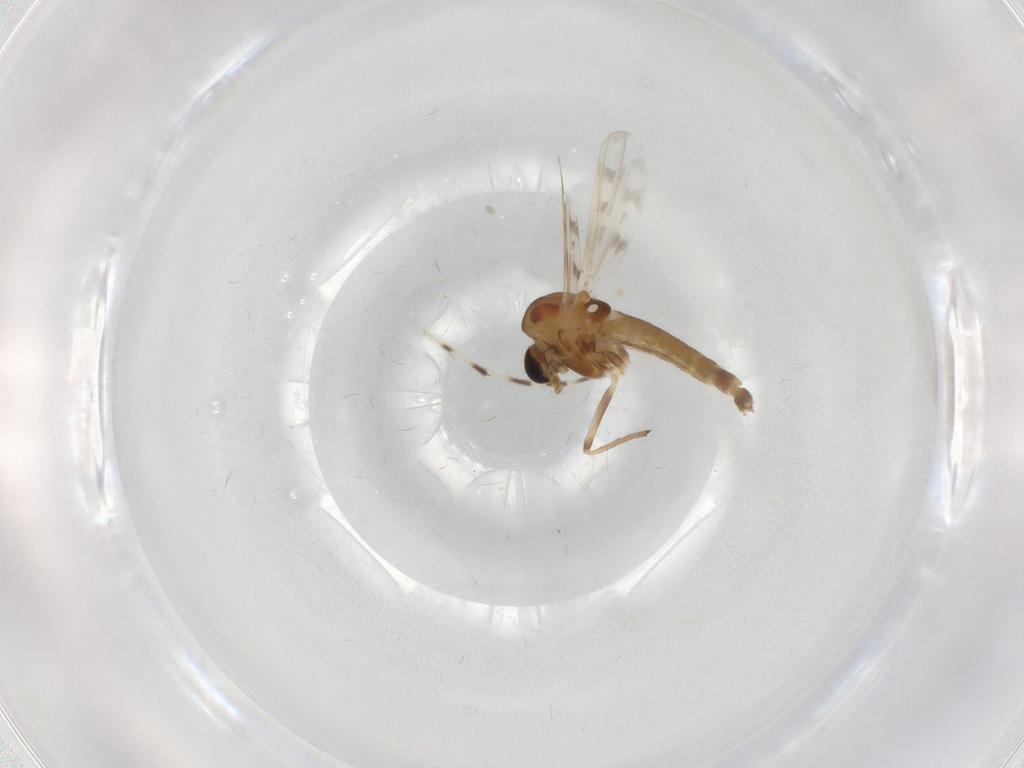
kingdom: Animalia
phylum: Arthropoda
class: Insecta
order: Diptera
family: Chironomidae
